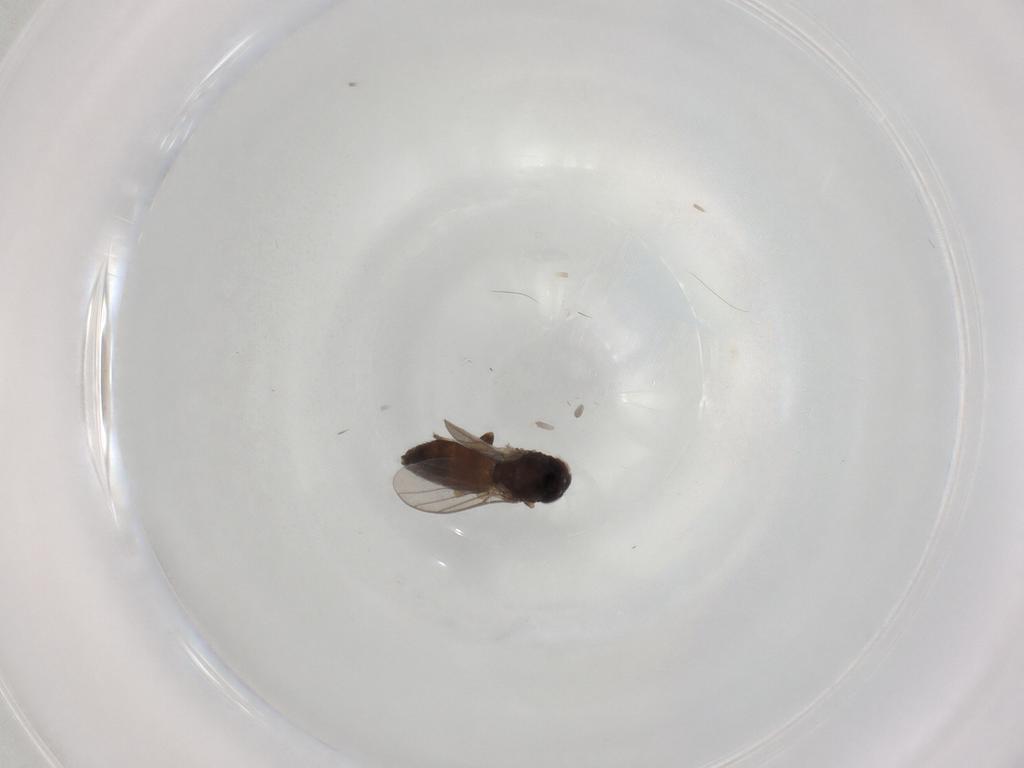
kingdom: Animalia
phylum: Arthropoda
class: Insecta
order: Diptera
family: Chloropidae
